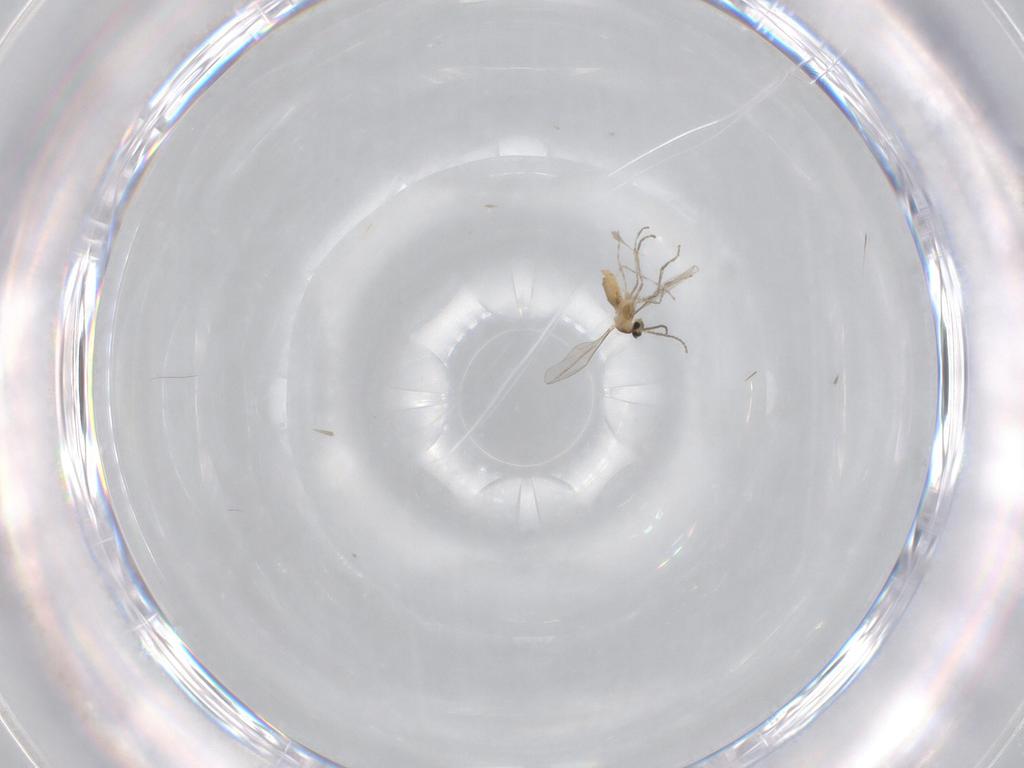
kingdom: Animalia
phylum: Arthropoda
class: Insecta
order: Diptera
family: Cecidomyiidae
